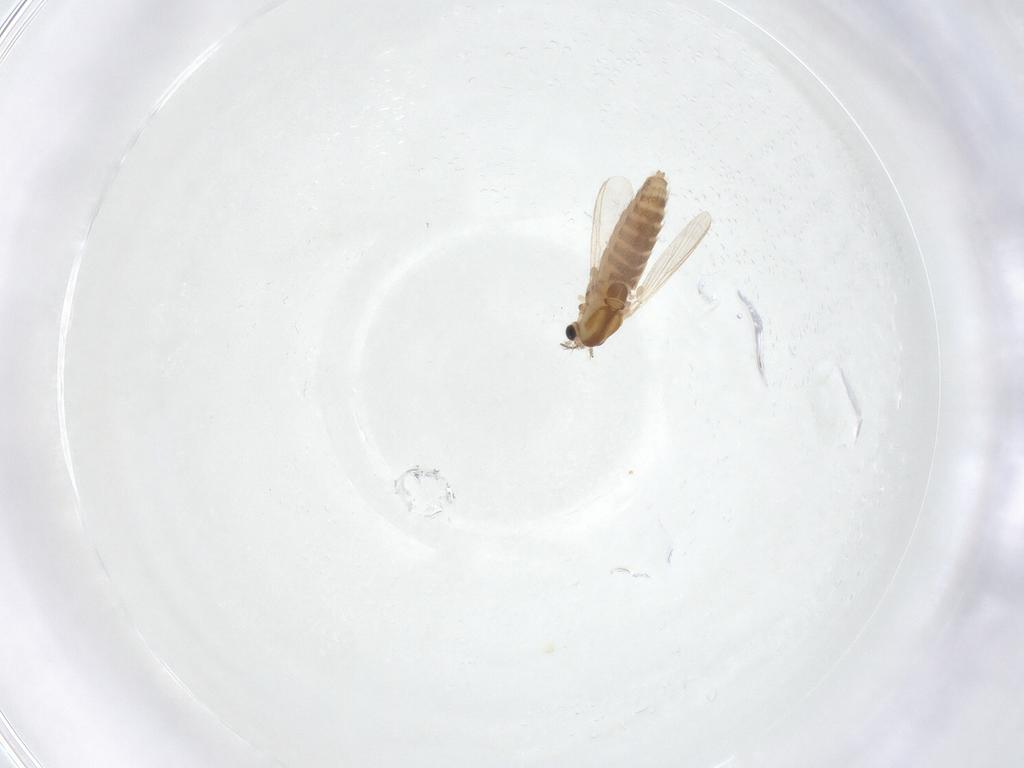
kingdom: Animalia
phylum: Arthropoda
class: Insecta
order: Diptera
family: Chironomidae
